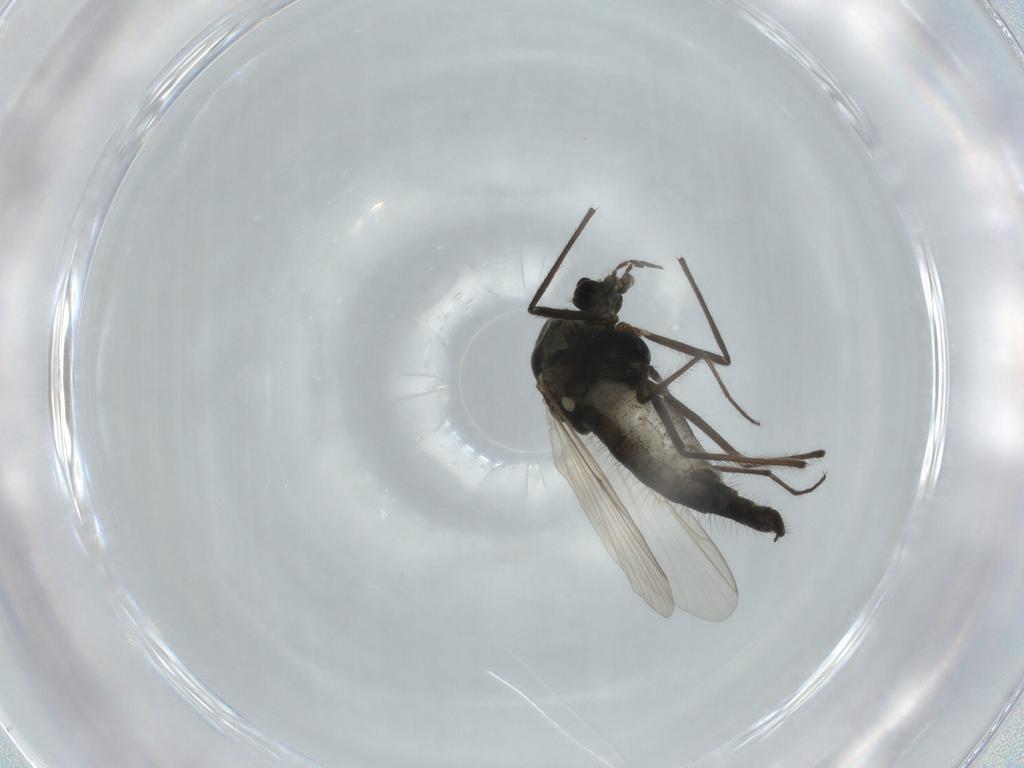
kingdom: Animalia
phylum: Arthropoda
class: Insecta
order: Diptera
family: Chironomidae
